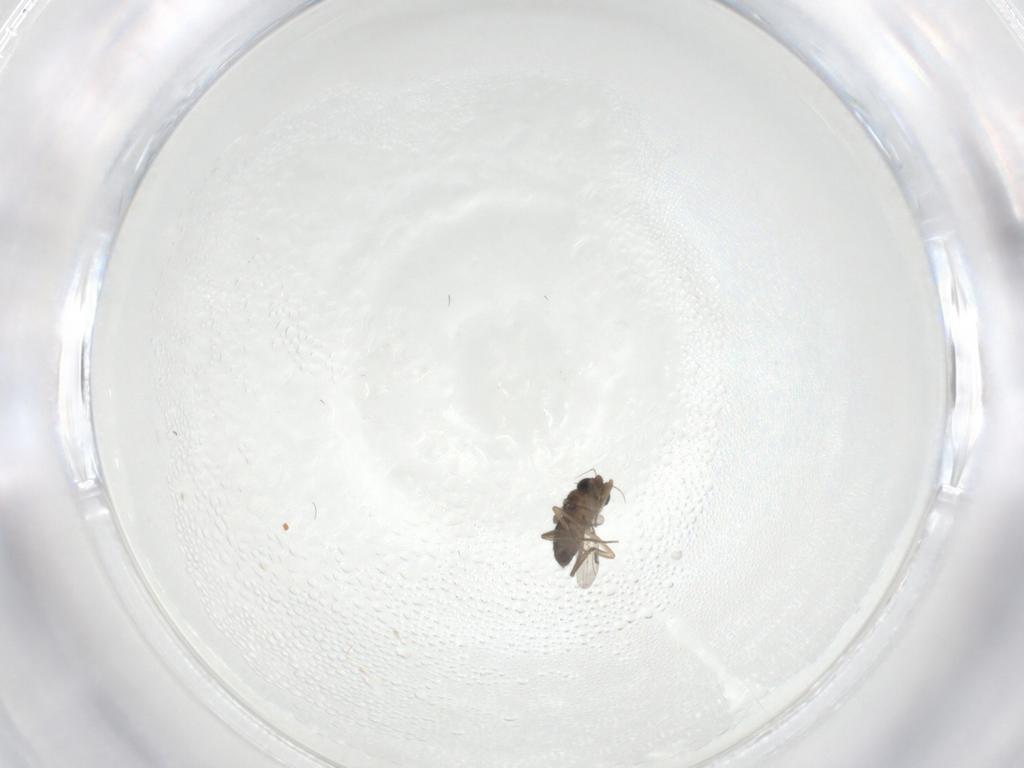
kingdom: Animalia
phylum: Arthropoda
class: Insecta
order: Diptera
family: Phoridae
